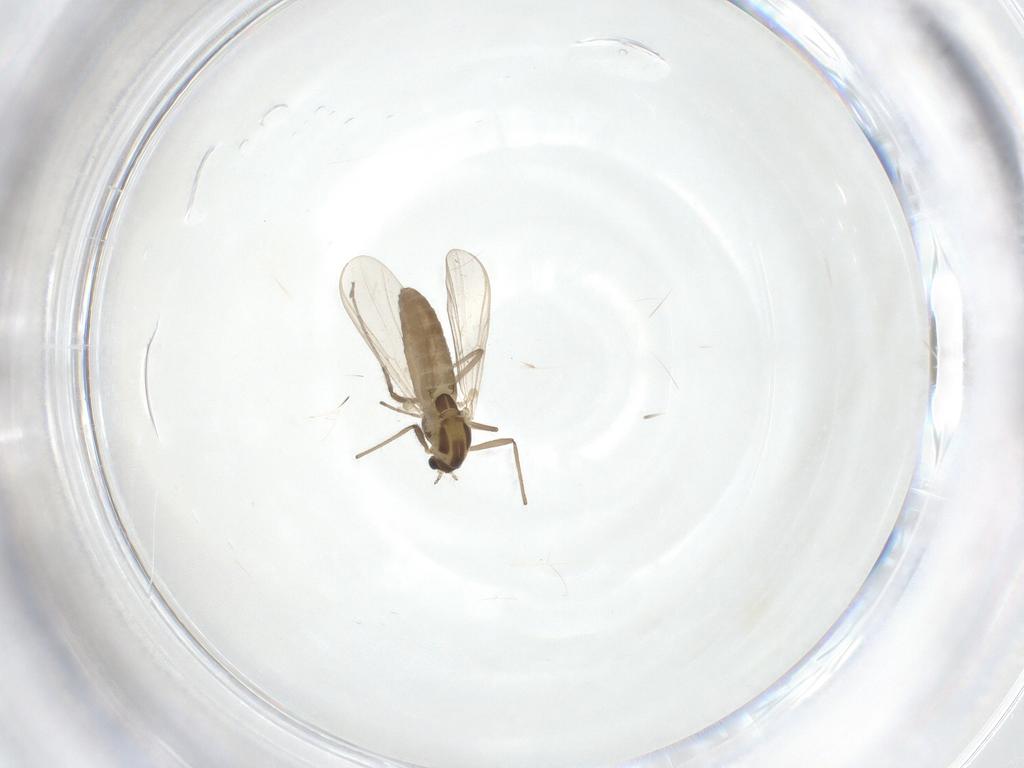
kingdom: Animalia
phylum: Arthropoda
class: Insecta
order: Diptera
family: Chironomidae
